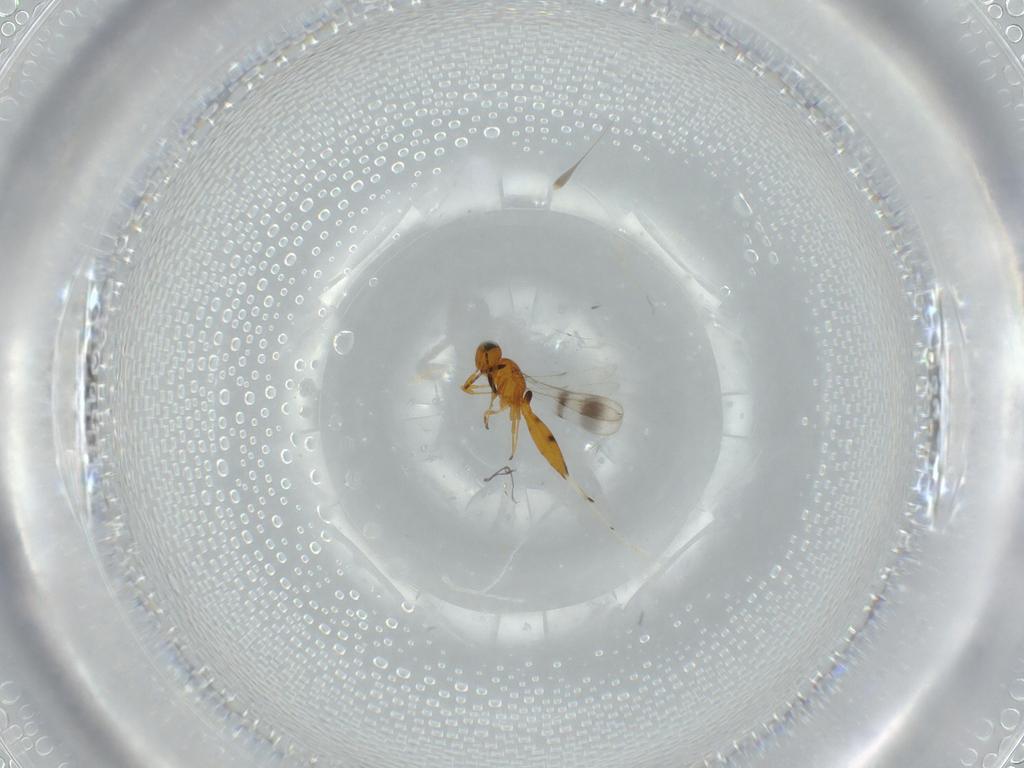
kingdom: Animalia
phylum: Arthropoda
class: Insecta
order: Hymenoptera
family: Scelionidae
